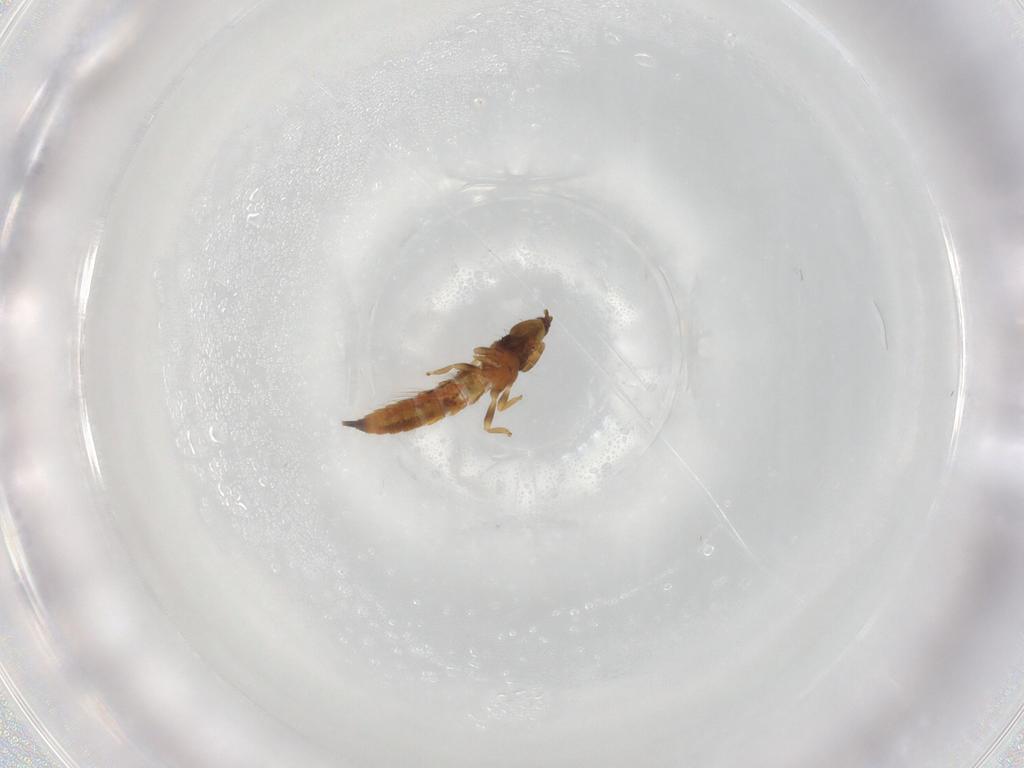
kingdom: Animalia
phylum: Arthropoda
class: Insecta
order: Thysanoptera
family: Phlaeothripidae
